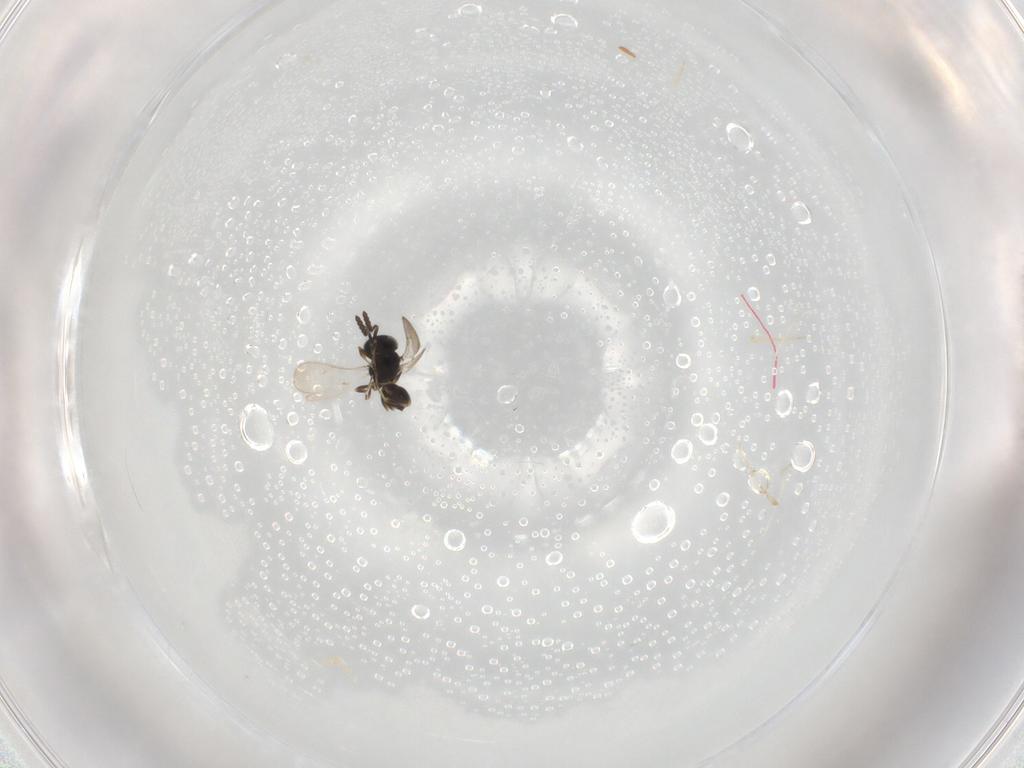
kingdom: Animalia
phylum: Arthropoda
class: Insecta
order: Hymenoptera
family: Scelionidae
